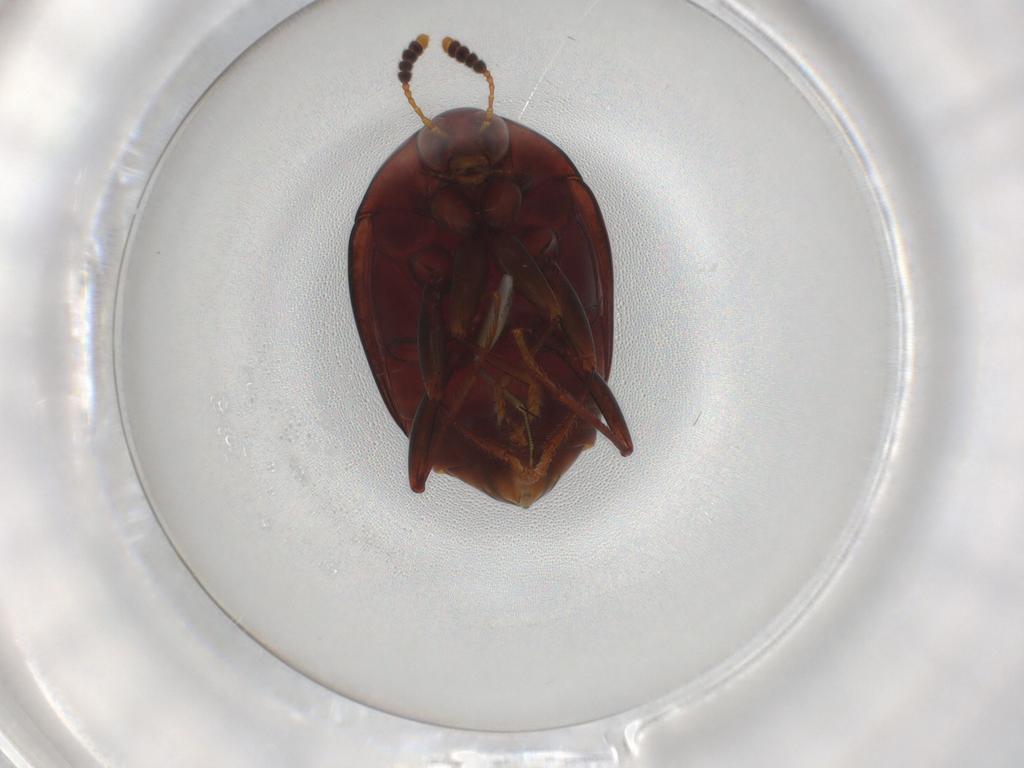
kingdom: Animalia
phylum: Arthropoda
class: Insecta
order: Coleoptera
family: Staphylinidae
